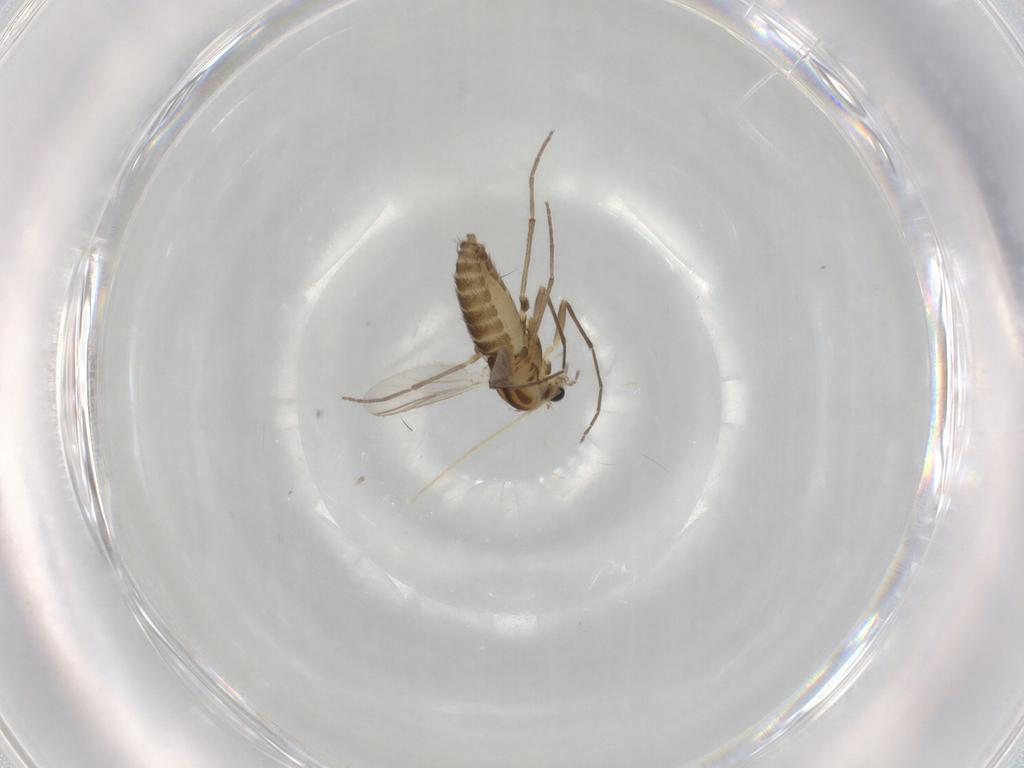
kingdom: Animalia
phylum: Arthropoda
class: Insecta
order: Diptera
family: Chironomidae
